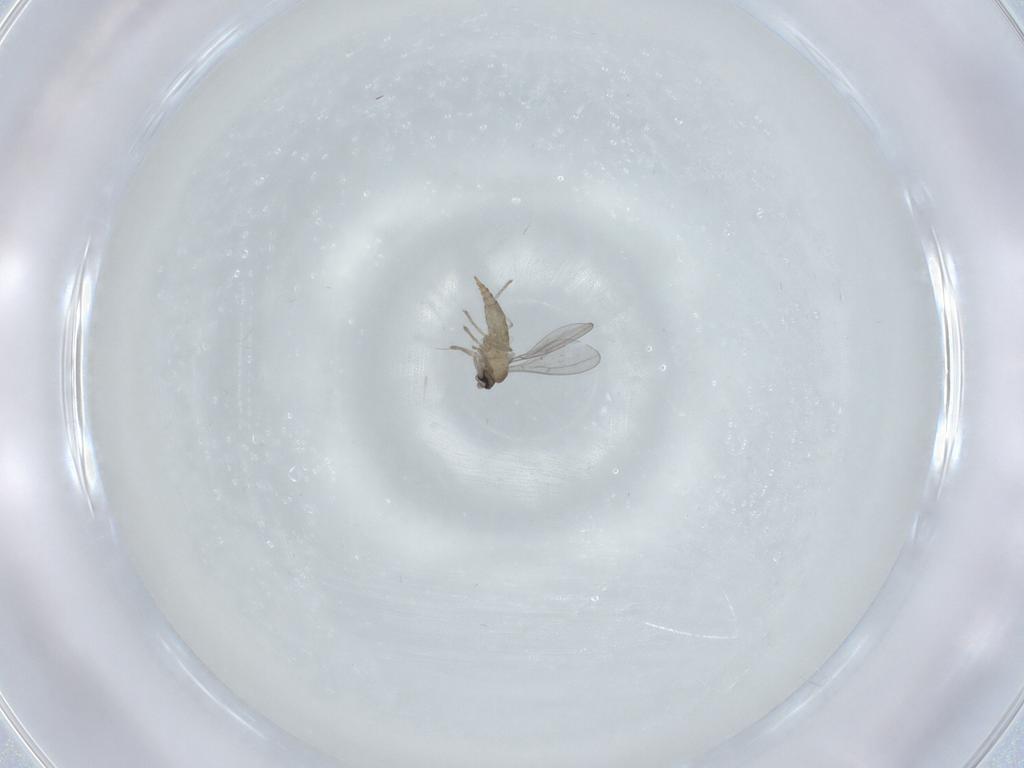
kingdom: Animalia
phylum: Arthropoda
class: Insecta
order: Diptera
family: Cecidomyiidae
